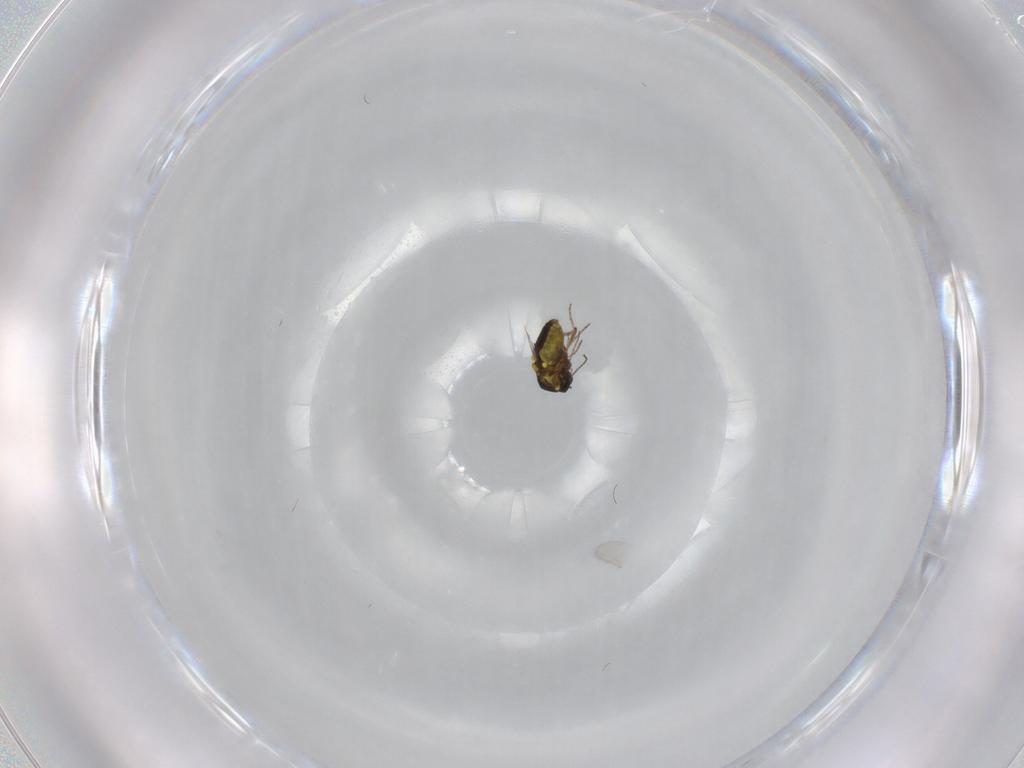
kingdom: Animalia
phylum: Arthropoda
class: Insecta
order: Diptera
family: Ceratopogonidae
